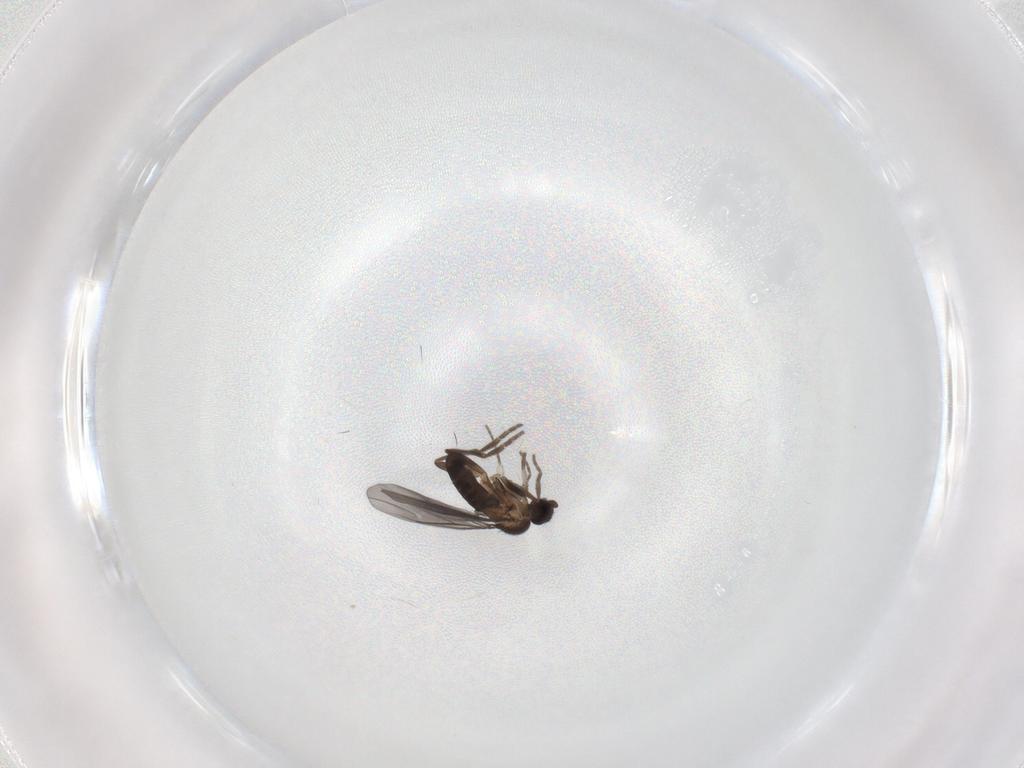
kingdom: Animalia
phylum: Arthropoda
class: Insecta
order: Diptera
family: Phoridae
